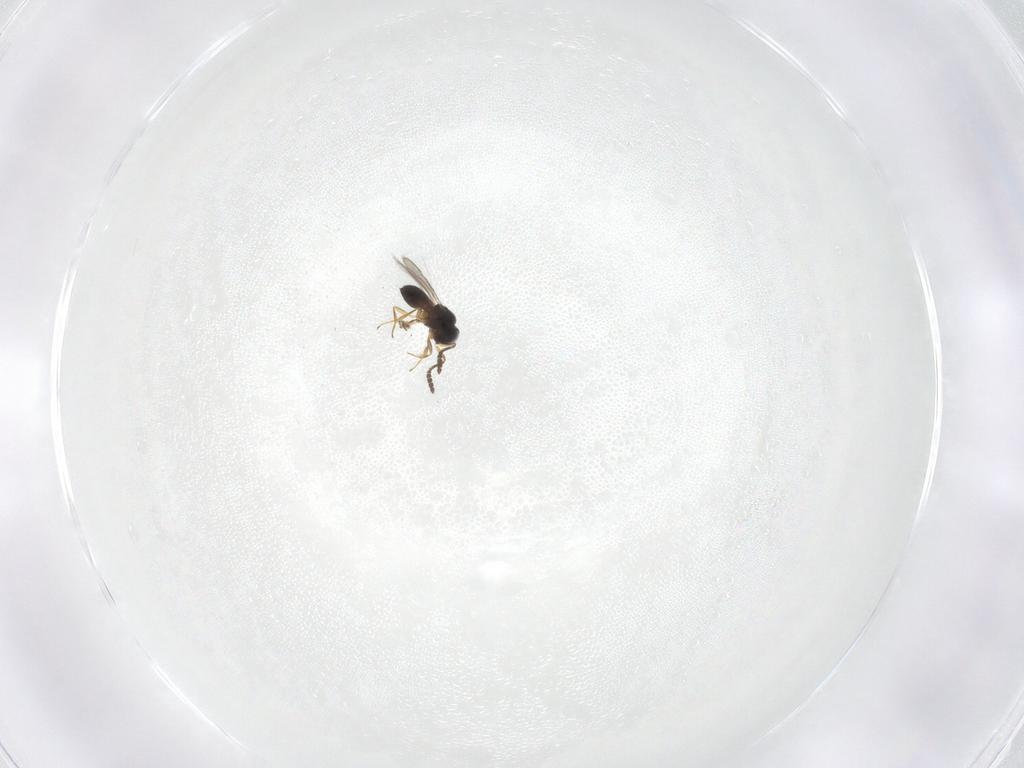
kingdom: Animalia
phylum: Arthropoda
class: Insecta
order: Hymenoptera
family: Scelionidae
